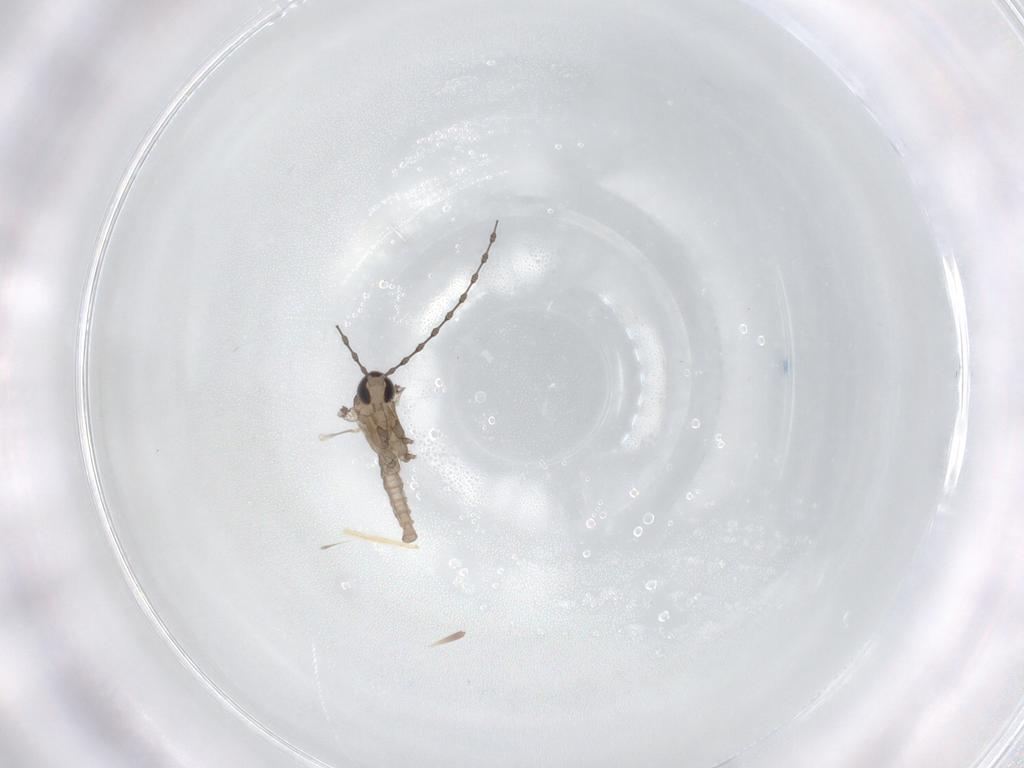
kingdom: Animalia
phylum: Arthropoda
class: Insecta
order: Diptera
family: Cecidomyiidae
